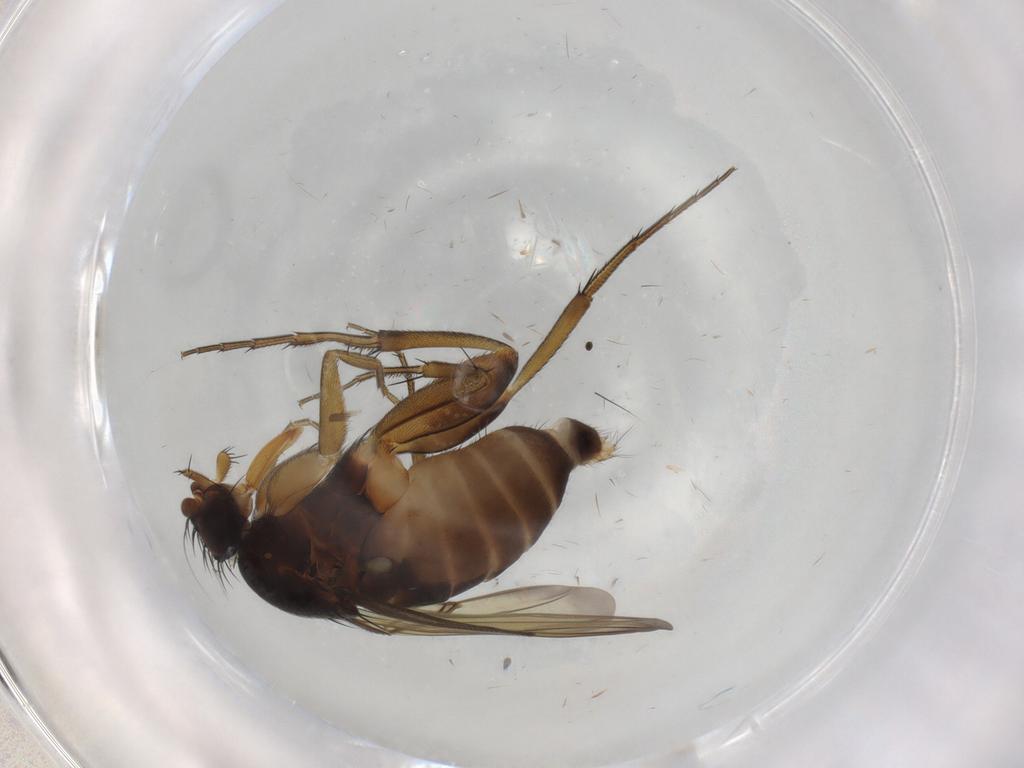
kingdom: Animalia
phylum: Arthropoda
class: Insecta
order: Diptera
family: Phoridae
